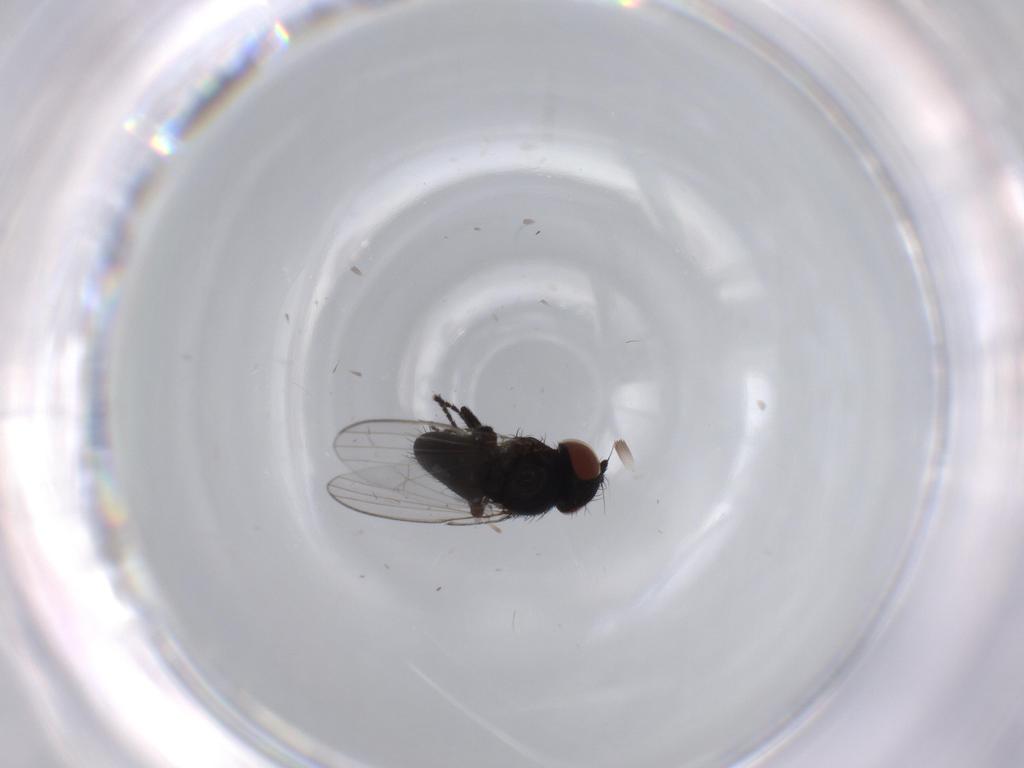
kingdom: Animalia
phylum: Arthropoda
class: Insecta
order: Diptera
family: Milichiidae
